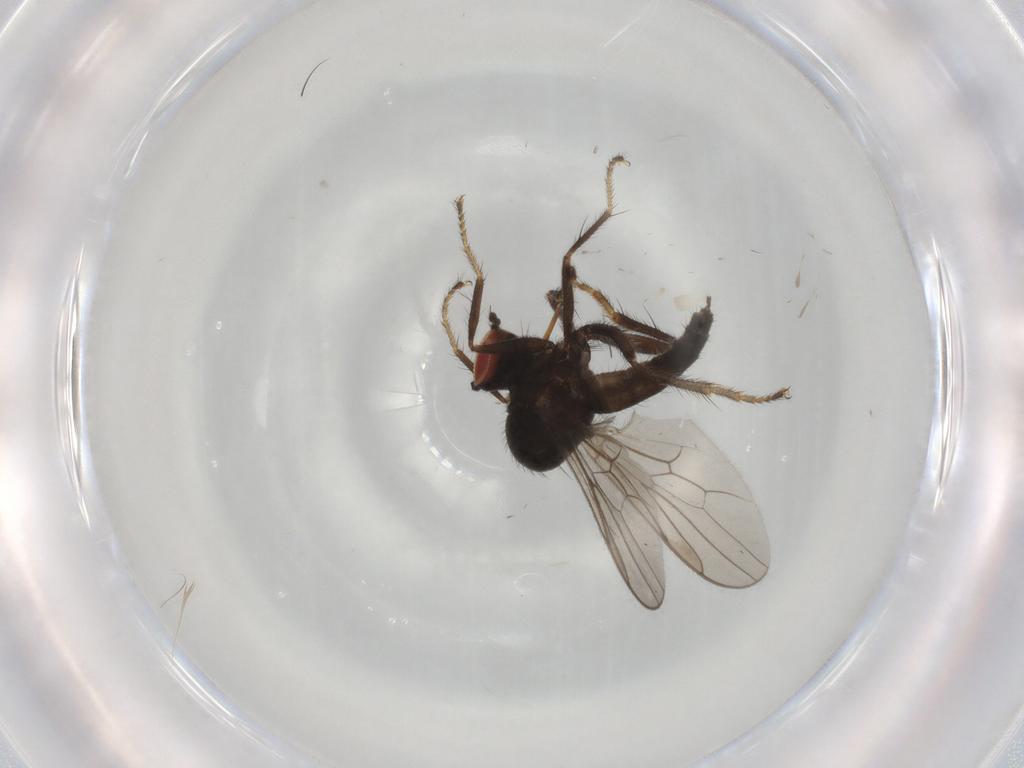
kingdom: Animalia
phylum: Arthropoda
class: Insecta
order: Diptera
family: Hybotidae
